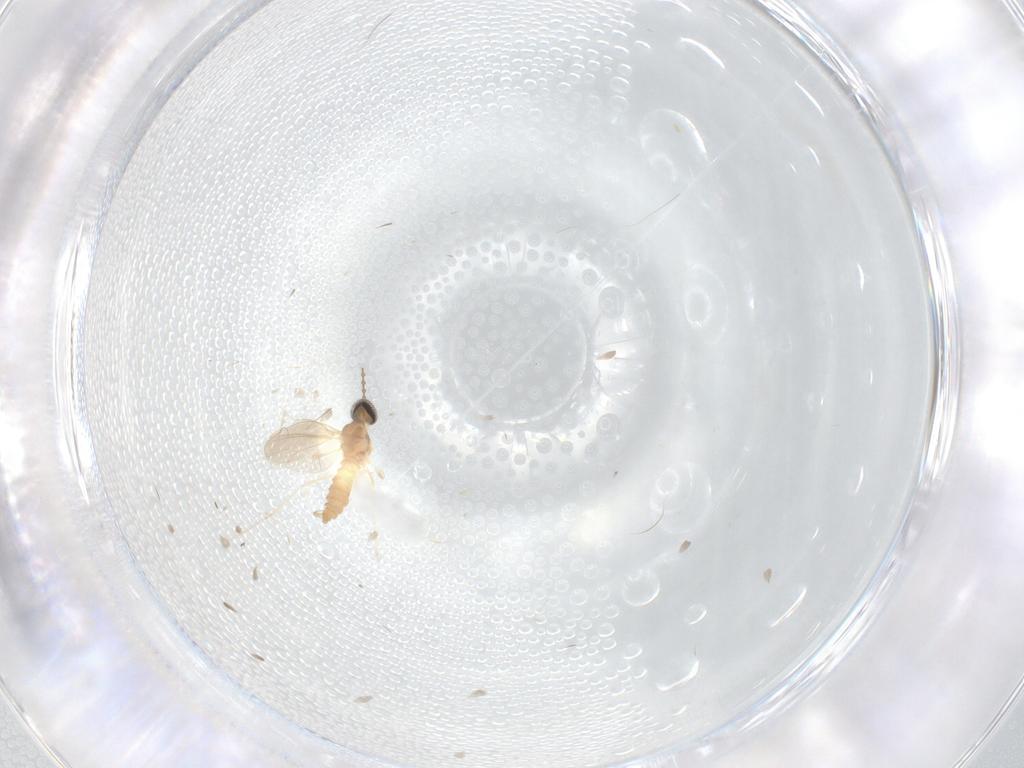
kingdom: Animalia
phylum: Arthropoda
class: Insecta
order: Diptera
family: Cecidomyiidae
